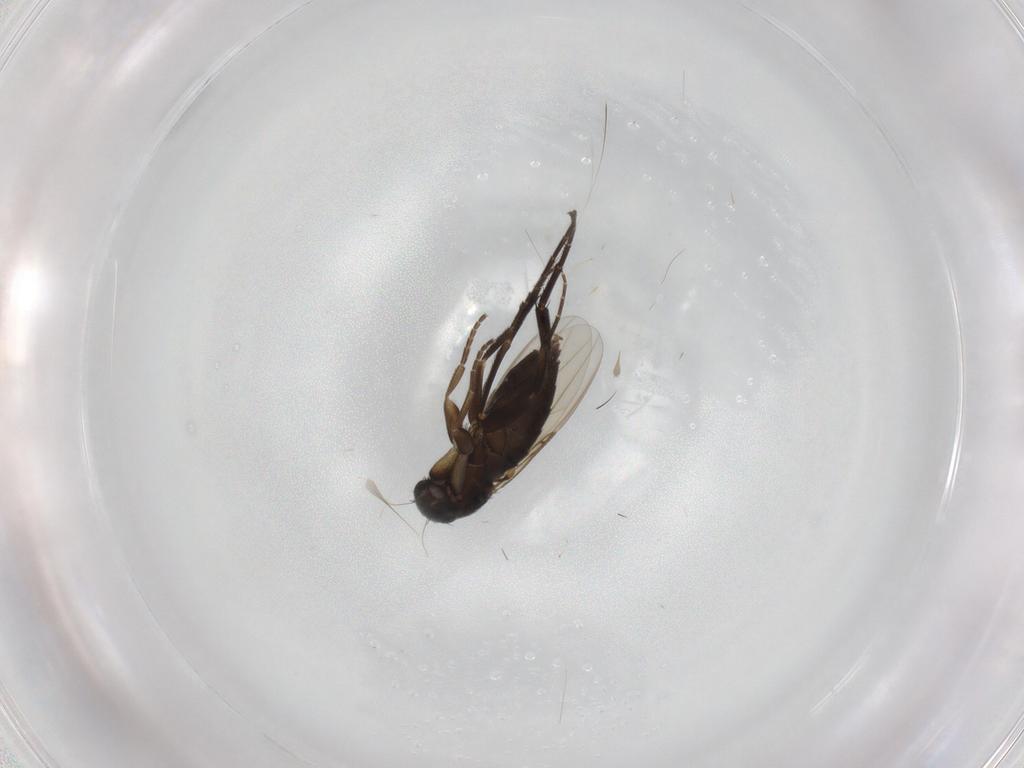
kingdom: Animalia
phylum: Arthropoda
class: Insecta
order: Diptera
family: Phoridae
